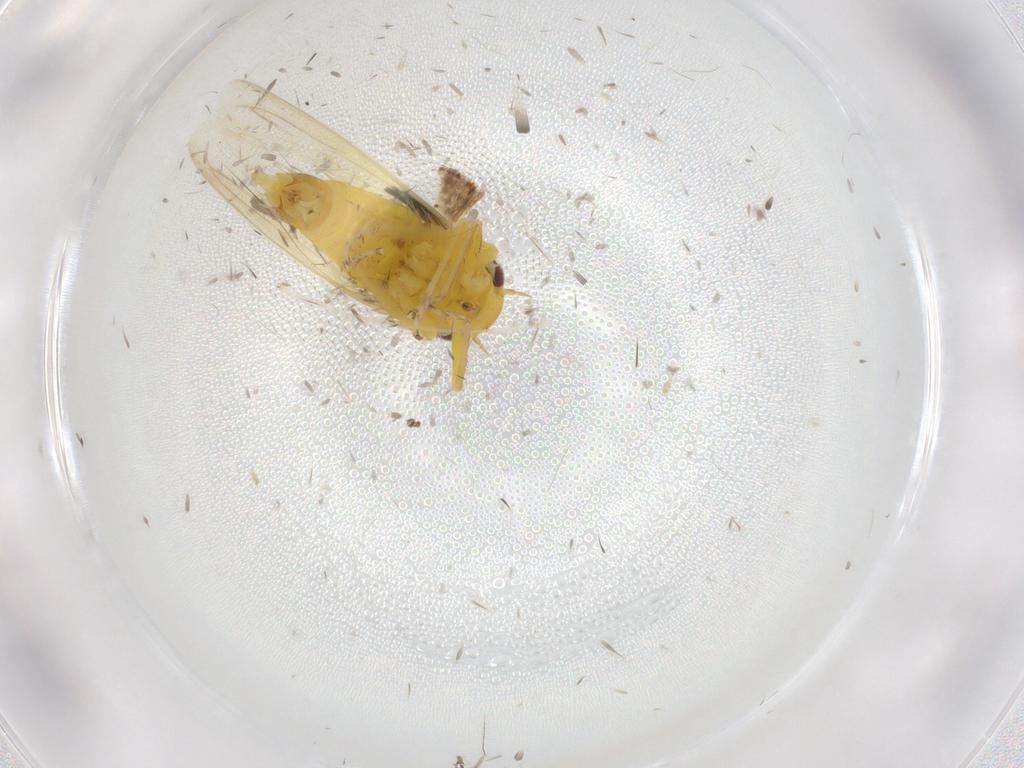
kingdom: Animalia
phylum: Arthropoda
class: Insecta
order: Hemiptera
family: Cicadellidae
